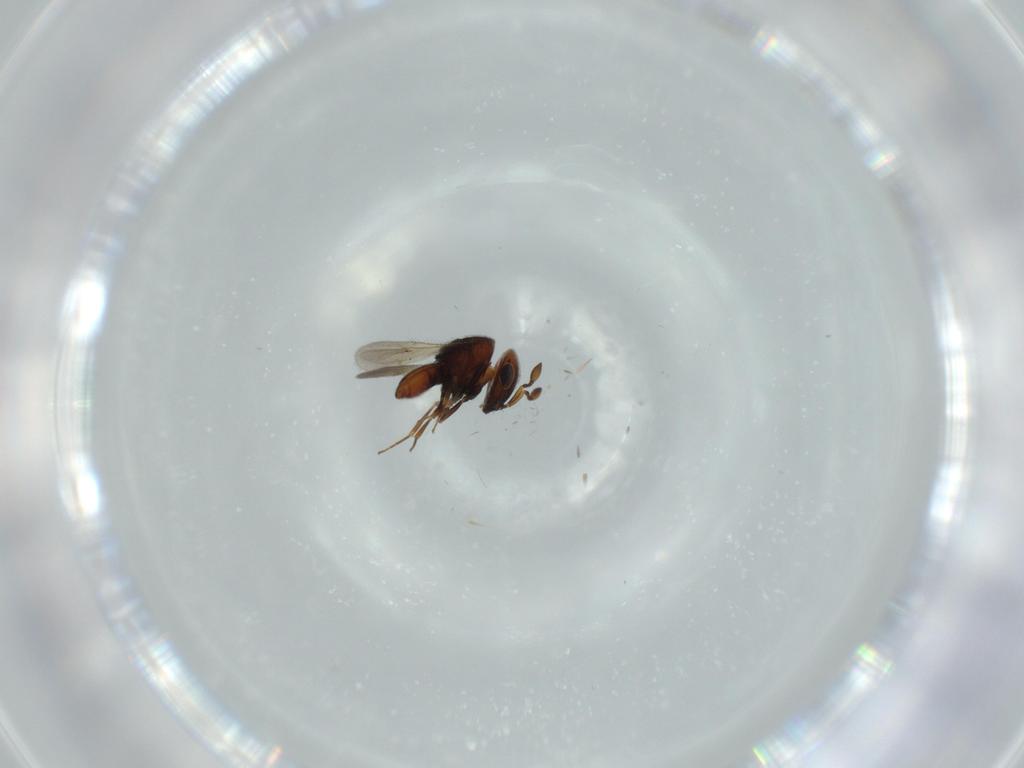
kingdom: Animalia
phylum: Arthropoda
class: Insecta
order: Hymenoptera
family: Scelionidae
